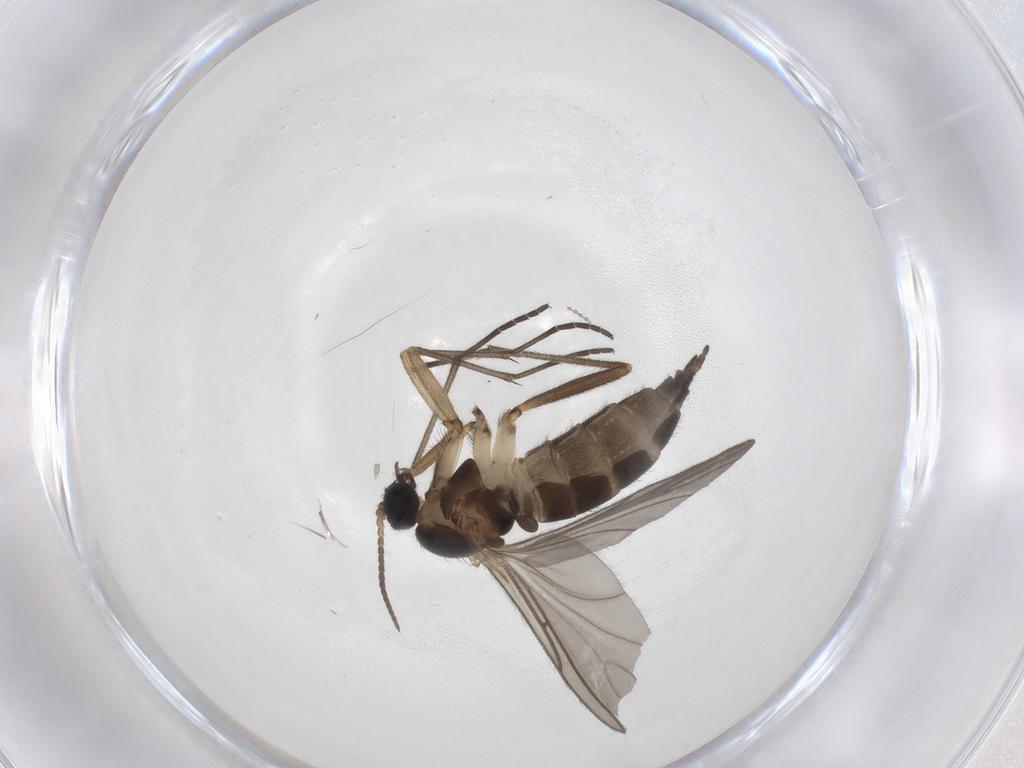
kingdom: Animalia
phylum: Arthropoda
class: Insecta
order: Diptera
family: Sciaridae
